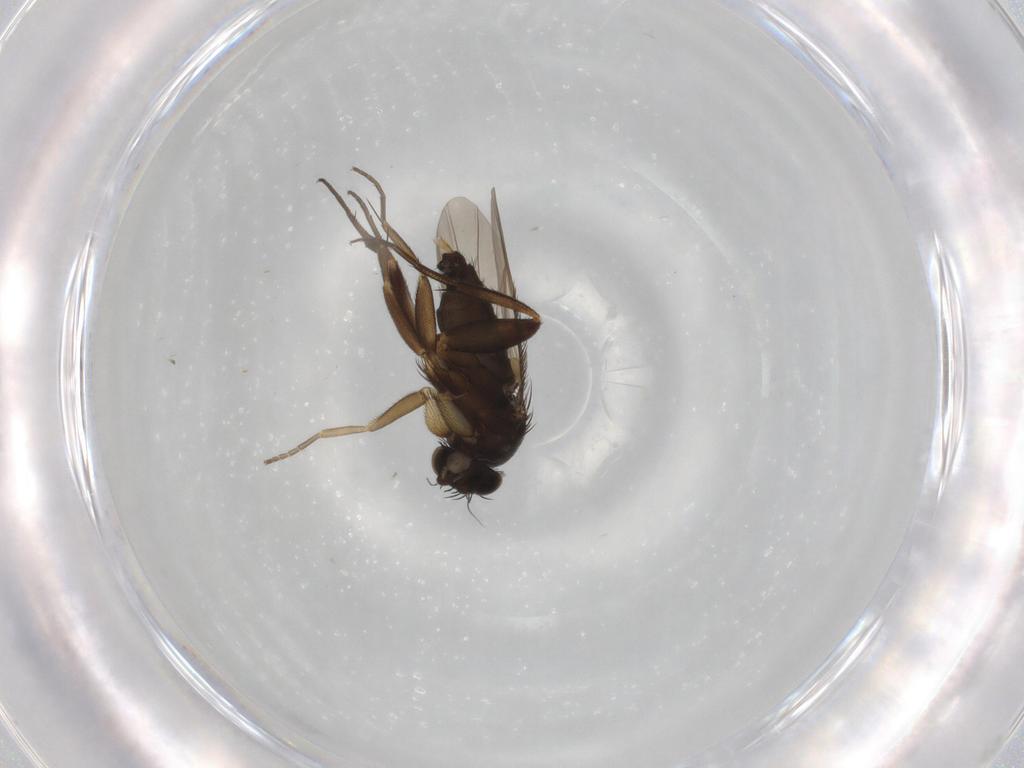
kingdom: Animalia
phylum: Arthropoda
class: Insecta
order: Diptera
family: Phoridae
